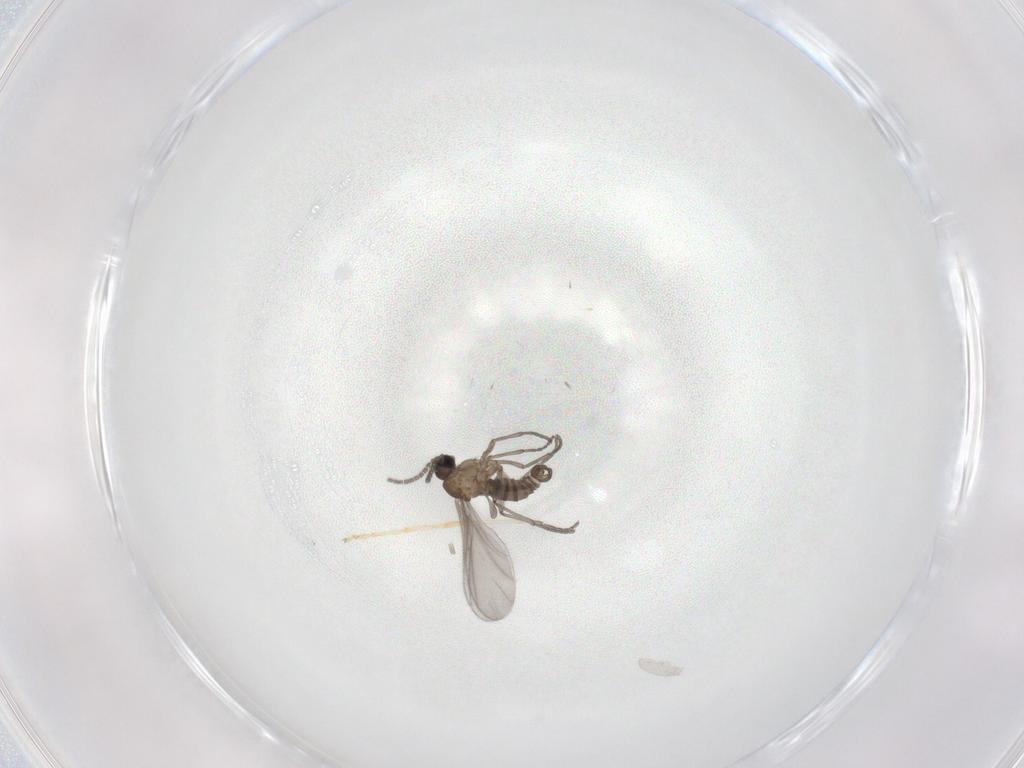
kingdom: Animalia
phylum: Arthropoda
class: Insecta
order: Diptera
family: Sciaridae
